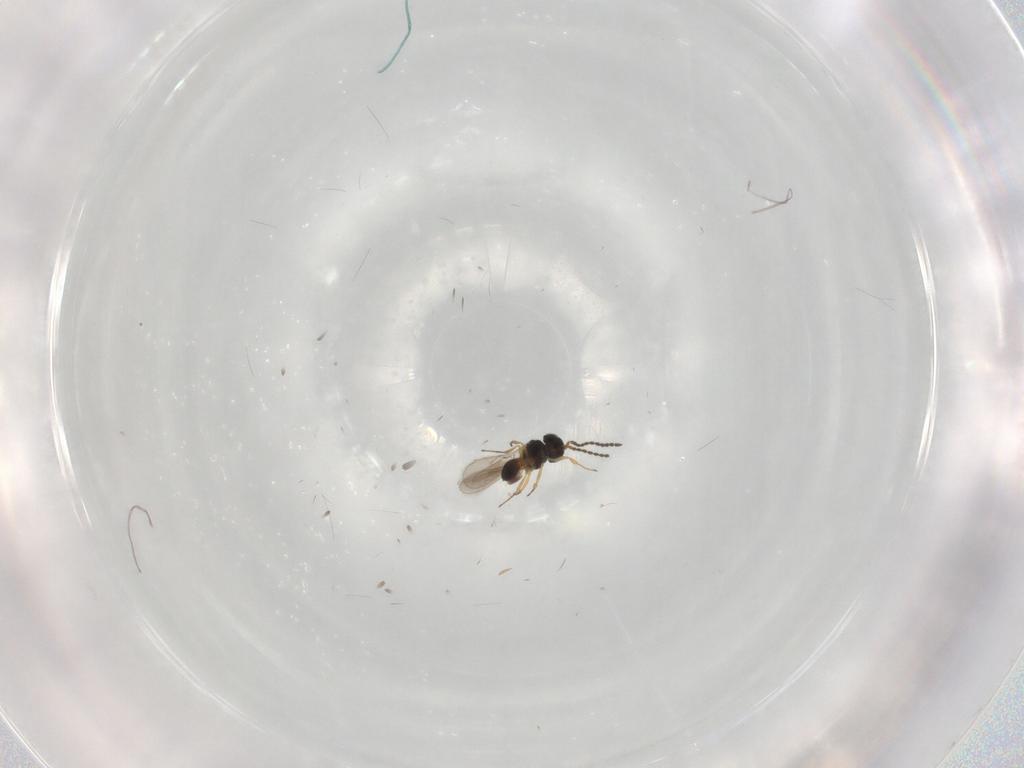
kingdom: Animalia
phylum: Arthropoda
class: Insecta
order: Hymenoptera
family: Scelionidae
